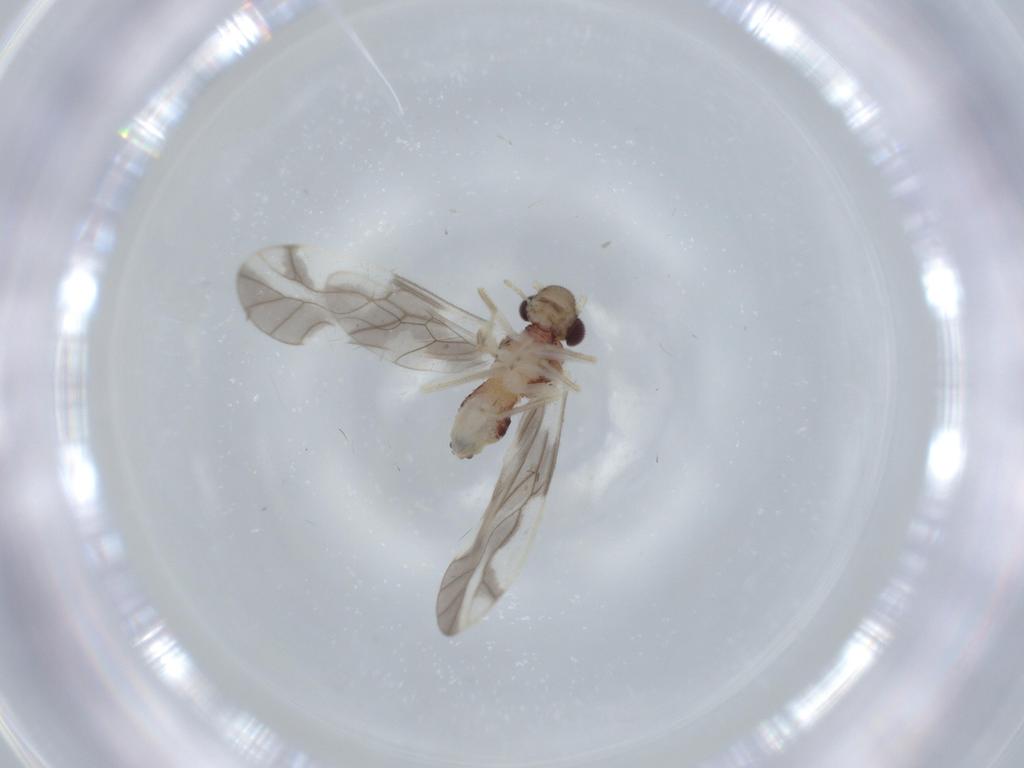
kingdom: Animalia
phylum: Arthropoda
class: Insecta
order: Psocodea
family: Caeciliusidae
